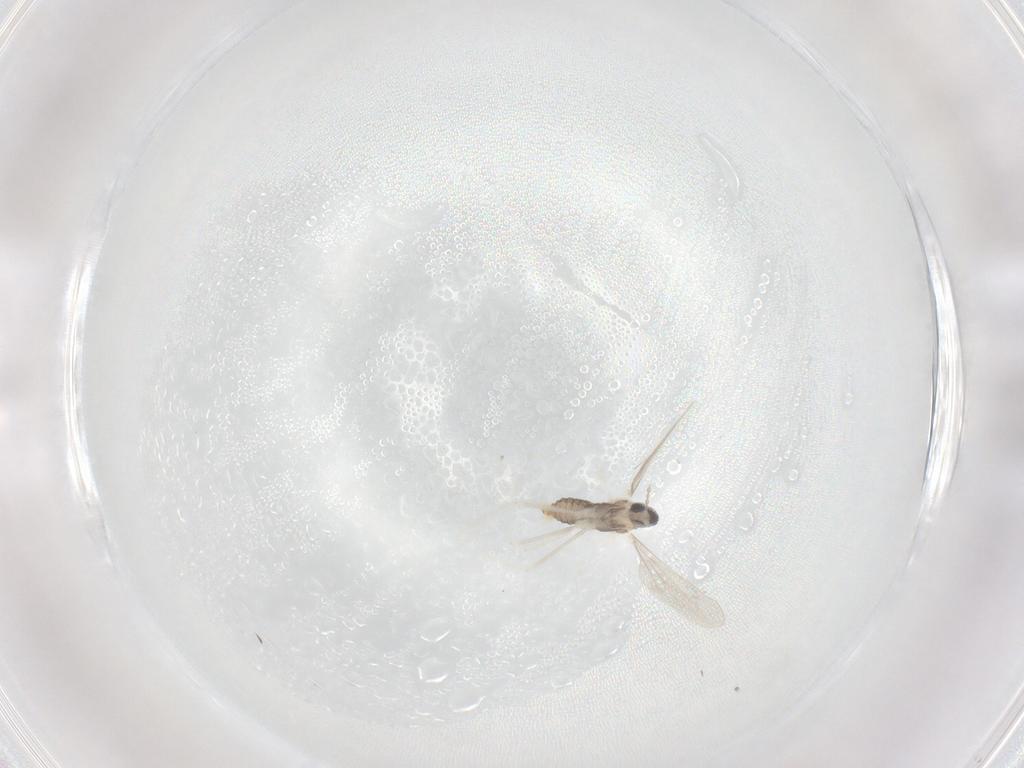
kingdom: Animalia
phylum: Arthropoda
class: Insecta
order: Diptera
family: Cecidomyiidae
